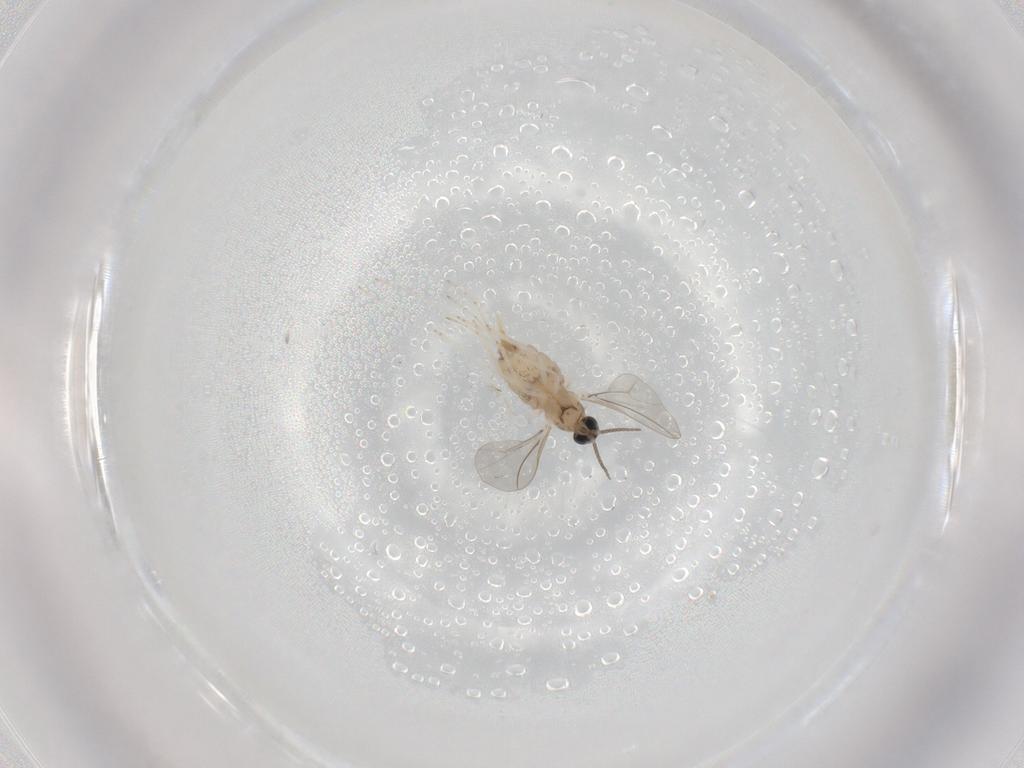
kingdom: Animalia
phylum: Arthropoda
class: Insecta
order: Diptera
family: Cecidomyiidae
